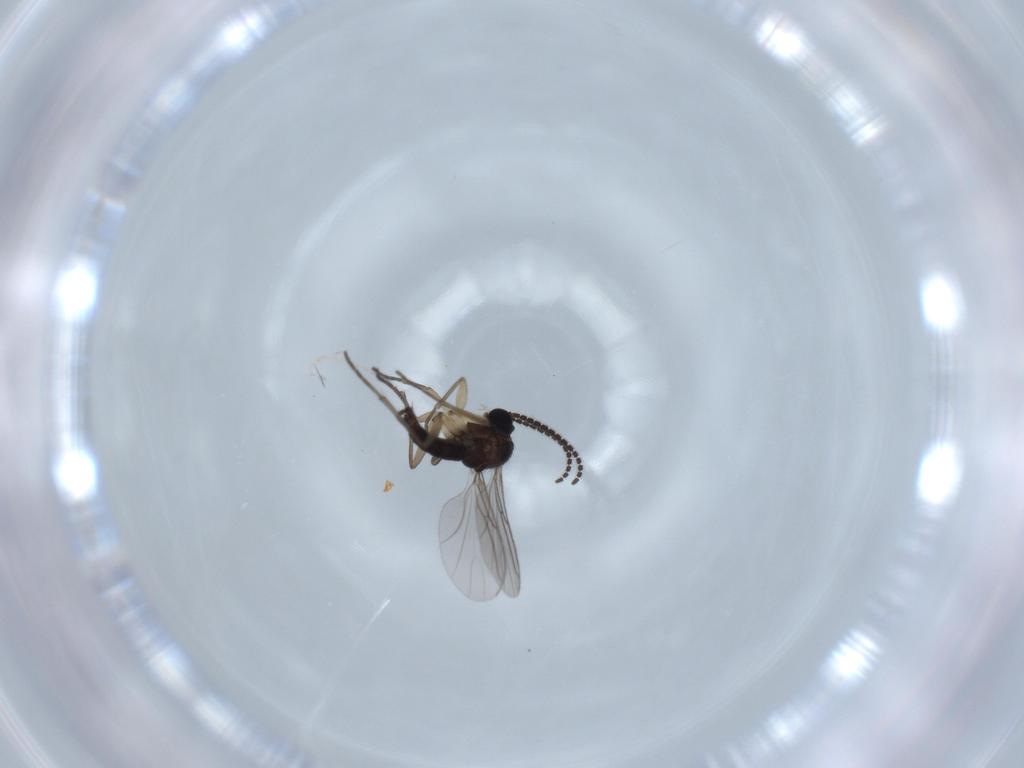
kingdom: Animalia
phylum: Arthropoda
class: Insecta
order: Diptera
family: Sciaridae
